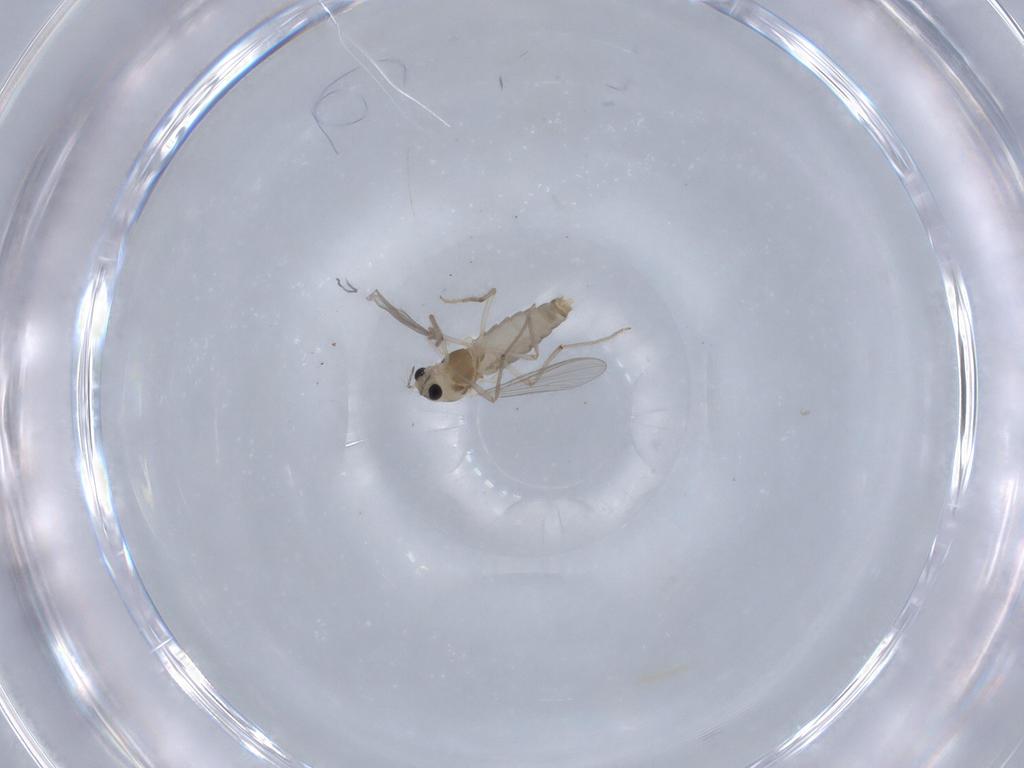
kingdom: Animalia
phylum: Arthropoda
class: Insecta
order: Diptera
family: Chironomidae
